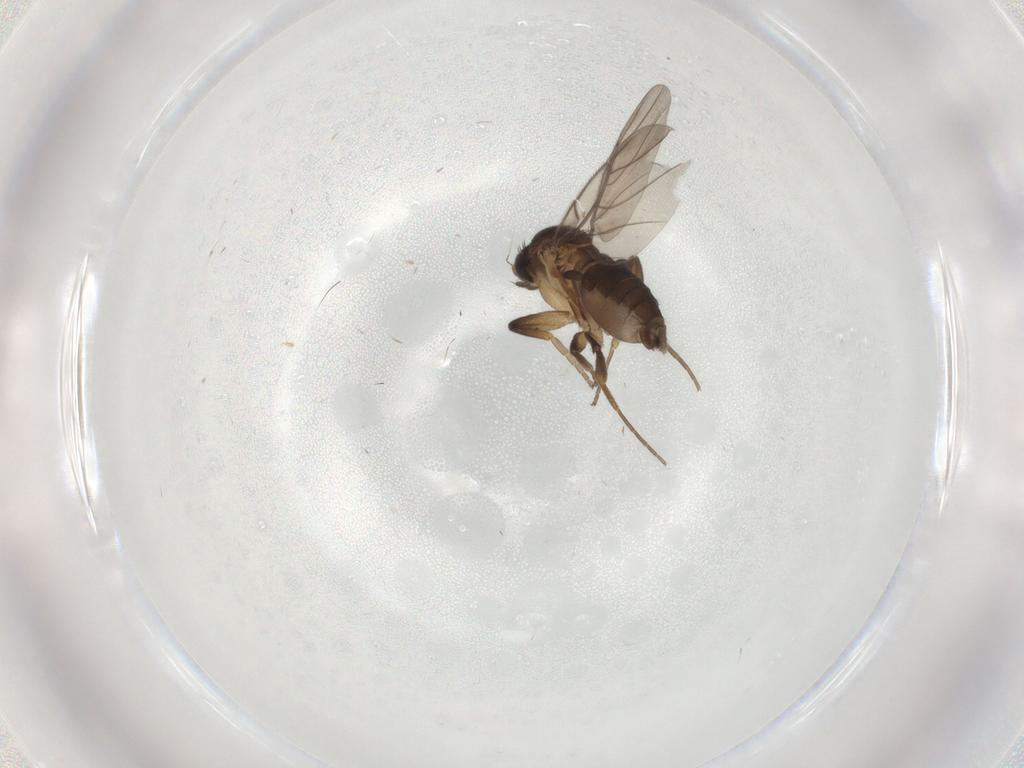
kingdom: Animalia
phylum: Arthropoda
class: Insecta
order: Diptera
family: Phoridae
